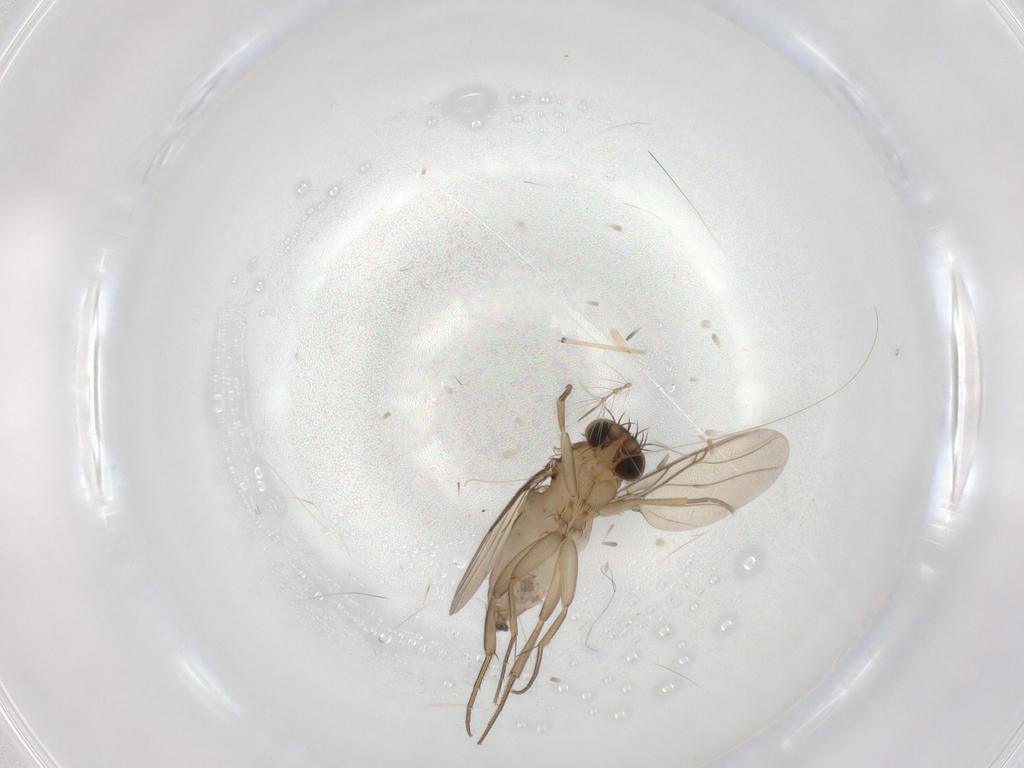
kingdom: Animalia
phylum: Arthropoda
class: Insecta
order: Diptera
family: Phoridae
